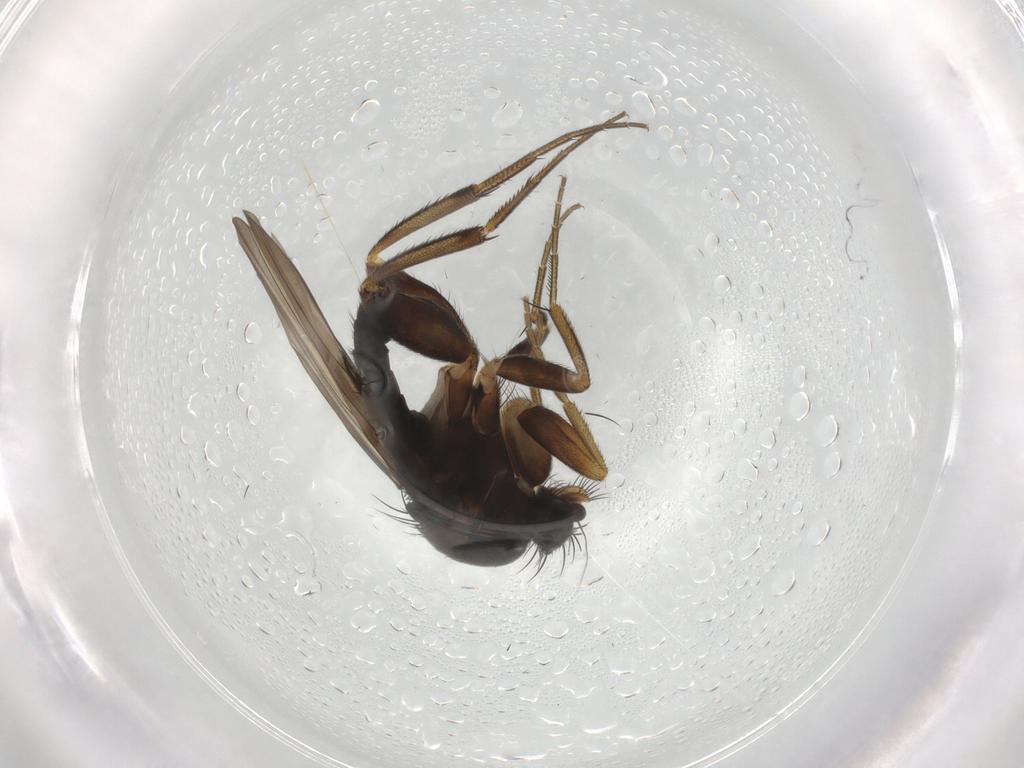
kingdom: Animalia
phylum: Arthropoda
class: Insecta
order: Diptera
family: Phoridae
